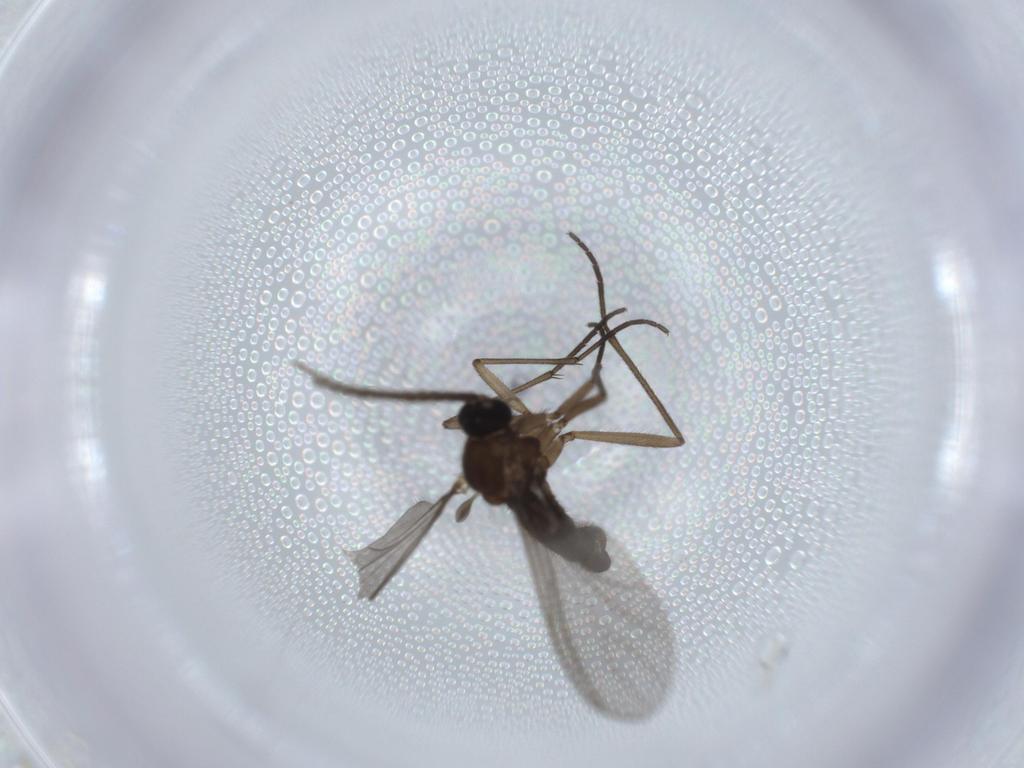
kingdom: Animalia
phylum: Arthropoda
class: Insecta
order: Diptera
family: Sciaridae
